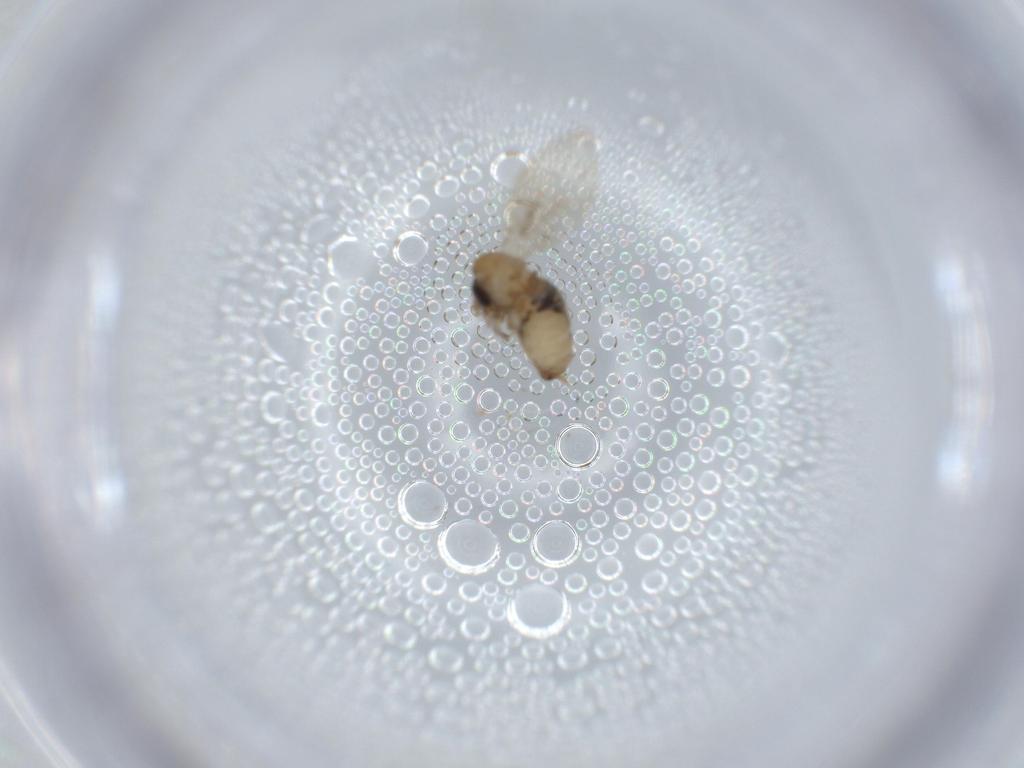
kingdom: Animalia
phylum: Arthropoda
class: Insecta
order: Diptera
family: Psychodidae
